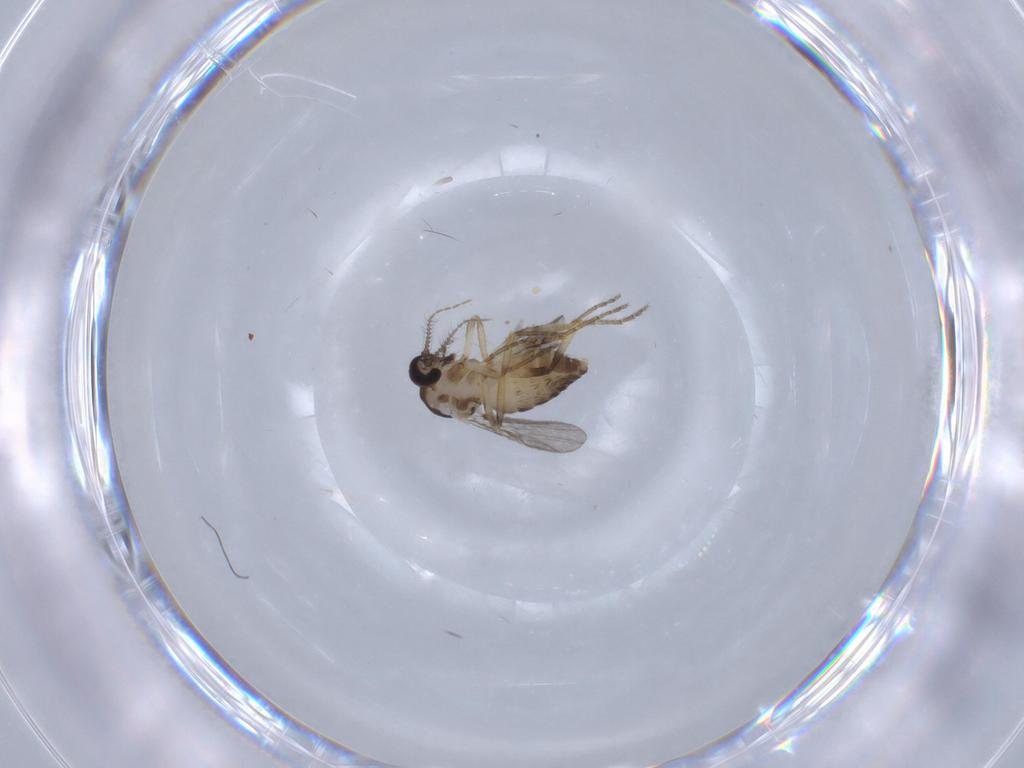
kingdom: Animalia
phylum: Arthropoda
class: Insecta
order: Diptera
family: Ceratopogonidae
